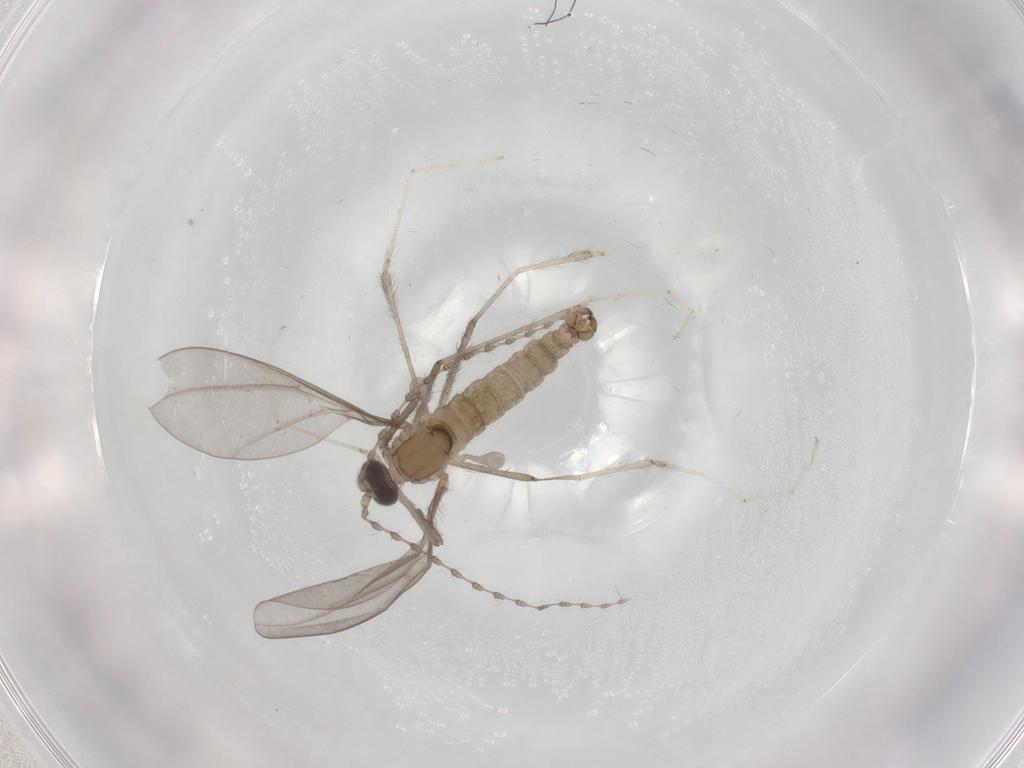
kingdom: Animalia
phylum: Arthropoda
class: Insecta
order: Diptera
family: Cecidomyiidae
